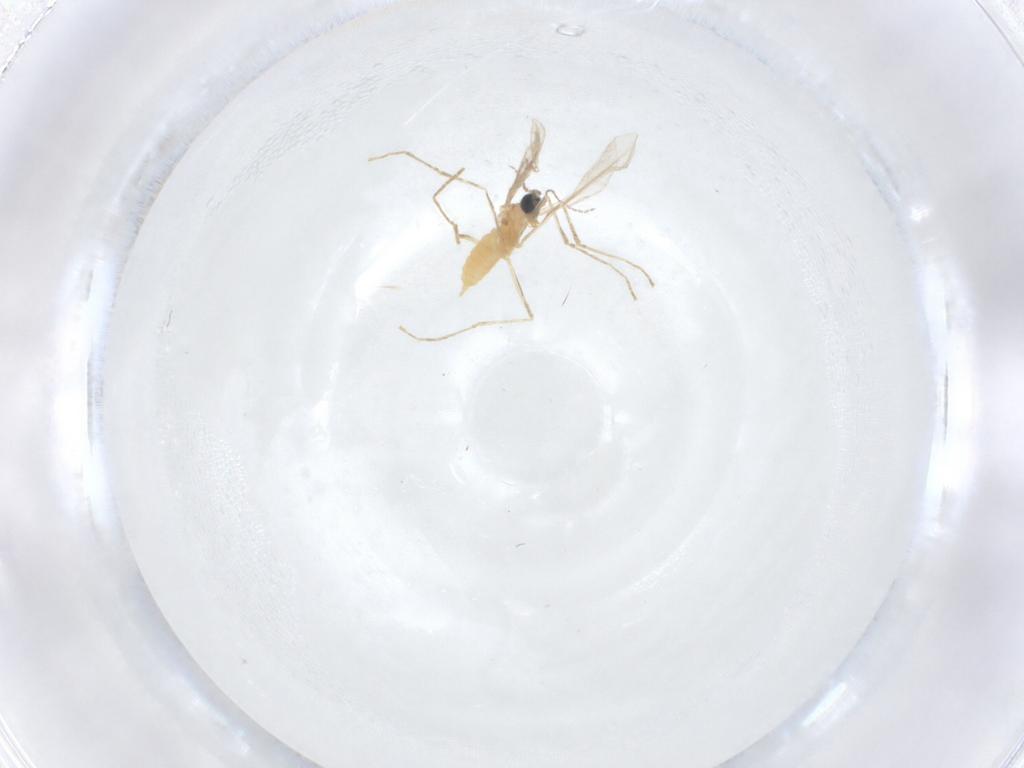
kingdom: Animalia
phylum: Arthropoda
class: Insecta
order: Diptera
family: Cecidomyiidae
